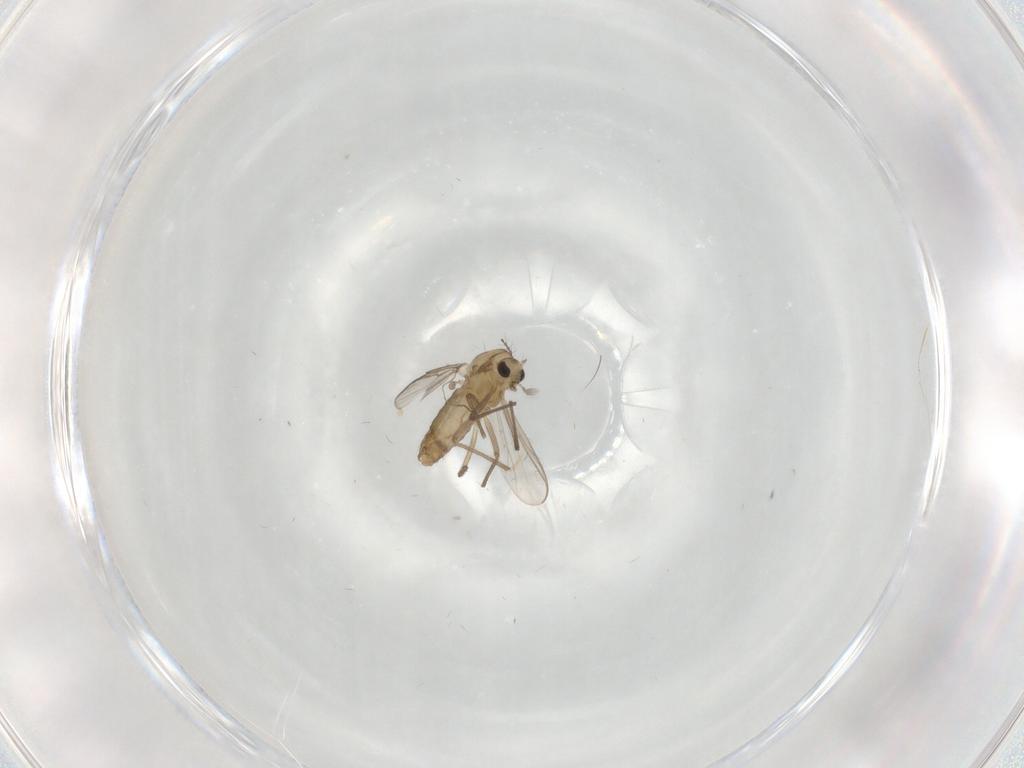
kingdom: Animalia
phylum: Arthropoda
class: Insecta
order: Diptera
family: Chironomidae
